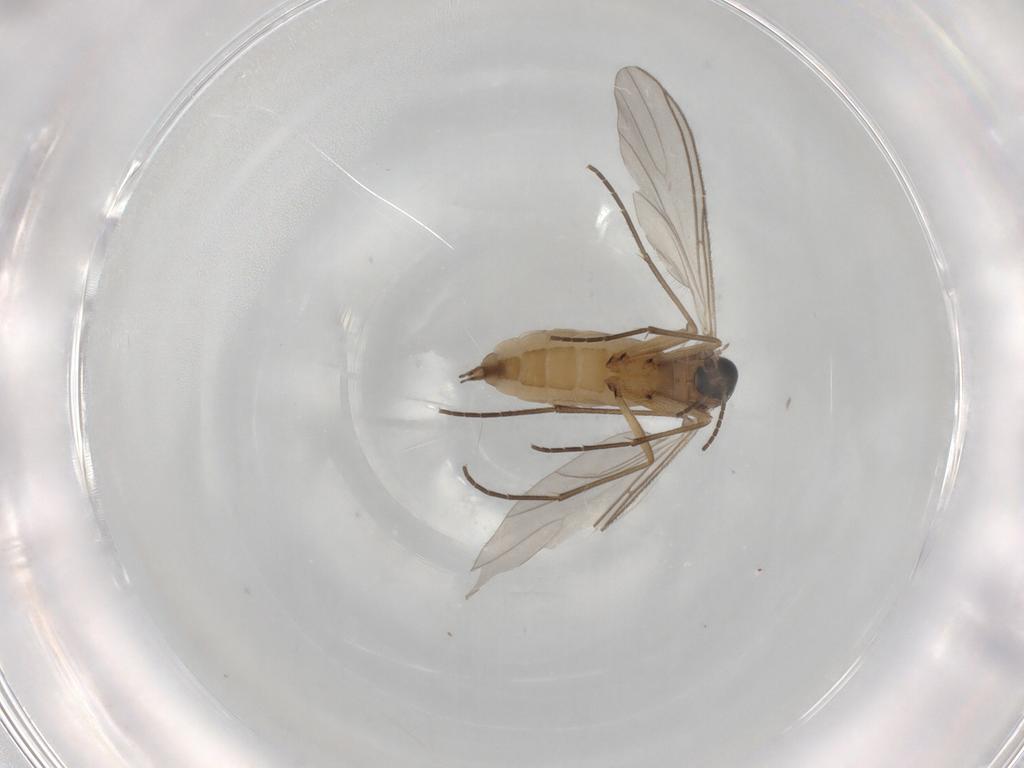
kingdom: Animalia
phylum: Arthropoda
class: Insecta
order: Diptera
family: Sciaridae
